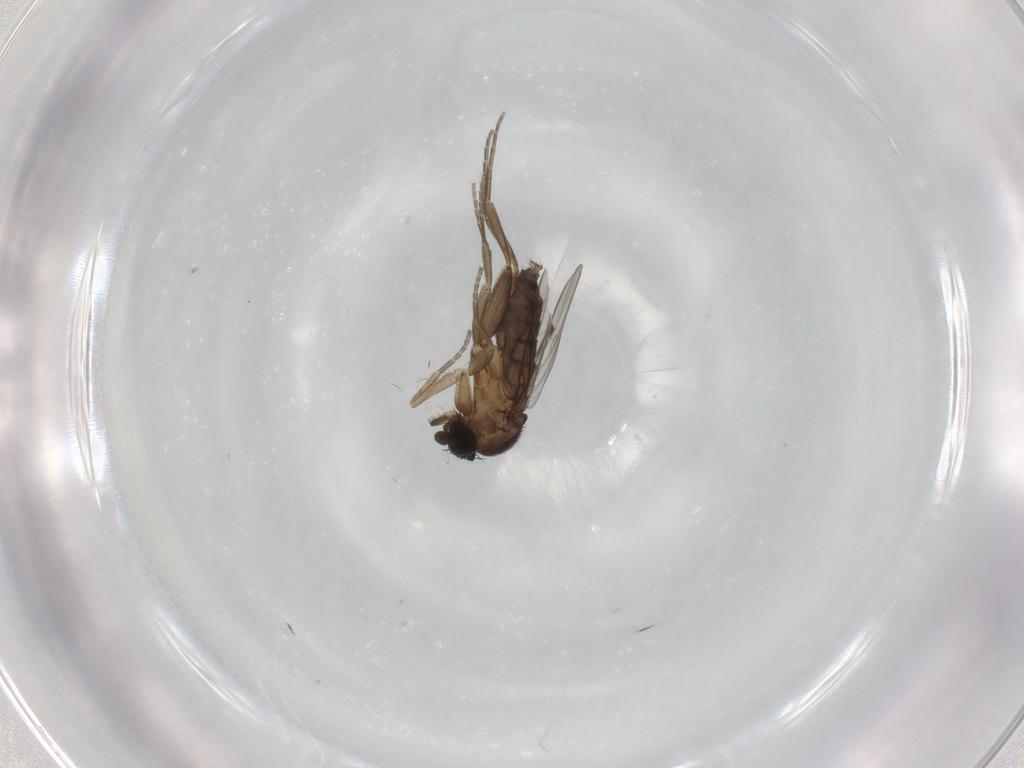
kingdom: Animalia
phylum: Arthropoda
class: Insecta
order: Diptera
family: Phoridae
